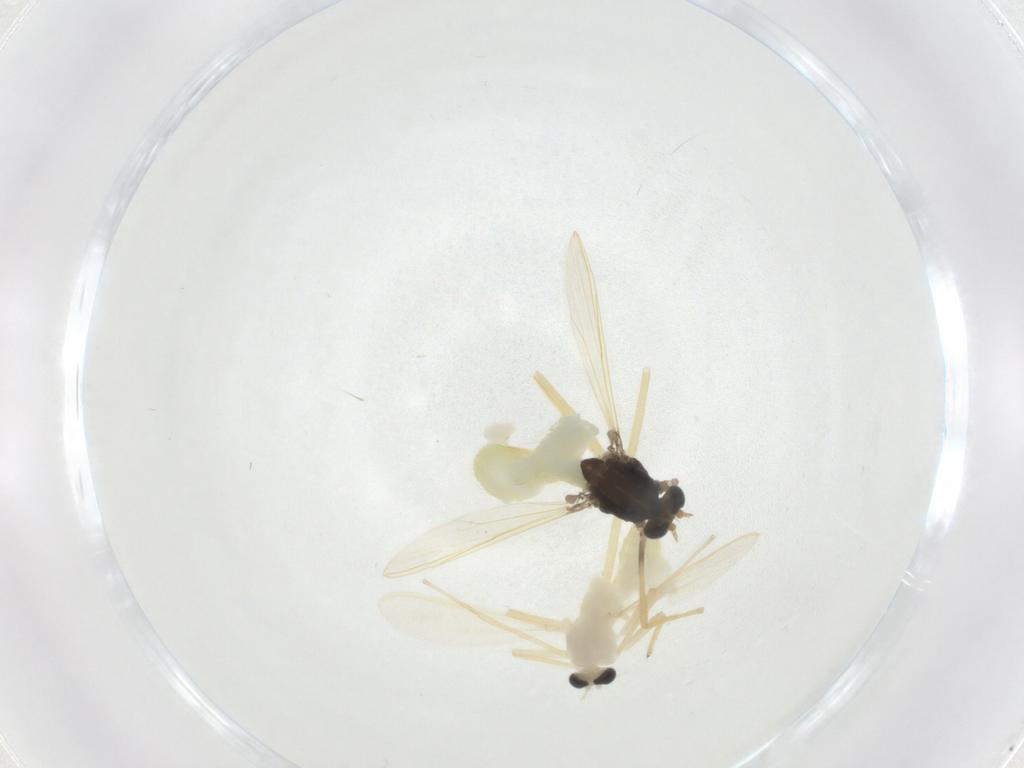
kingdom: Animalia
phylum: Arthropoda
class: Insecta
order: Diptera
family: Chironomidae
